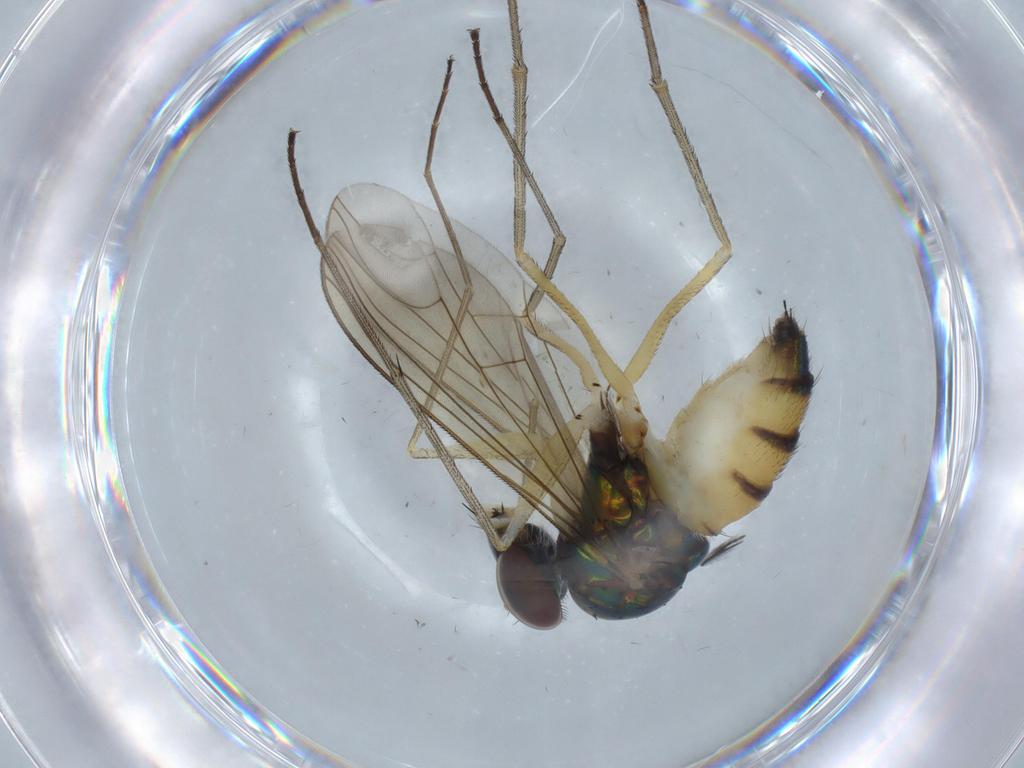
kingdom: Animalia
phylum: Arthropoda
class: Insecta
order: Diptera
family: Dolichopodidae
